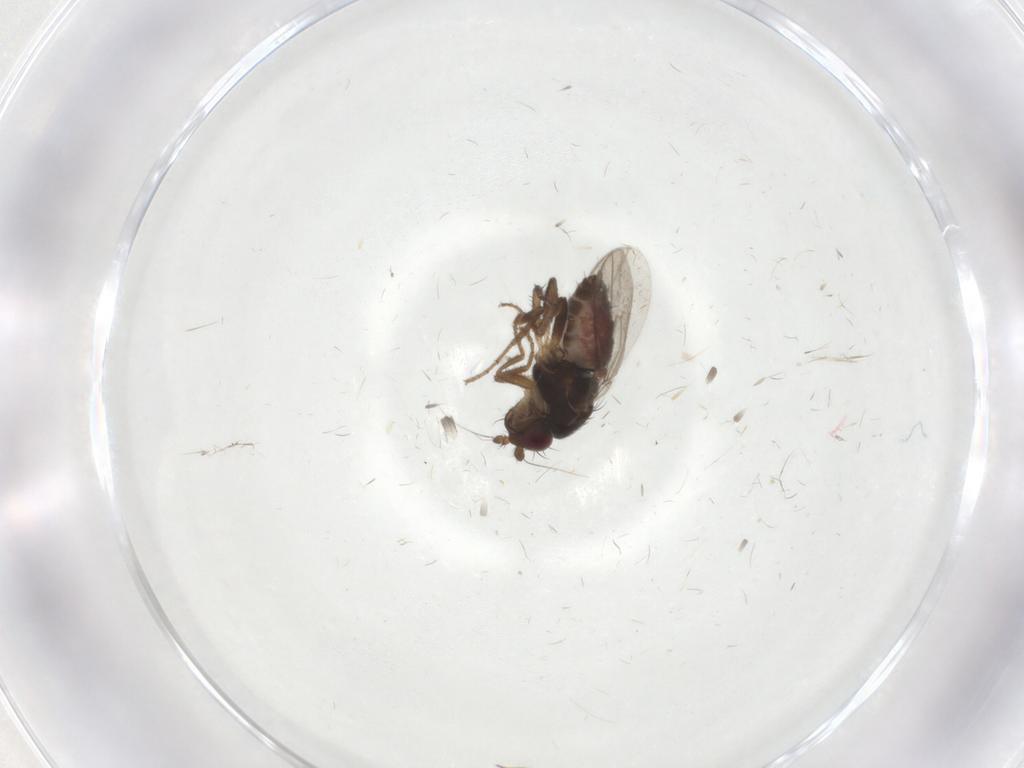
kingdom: Animalia
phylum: Arthropoda
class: Insecta
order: Diptera
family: Sphaeroceridae
